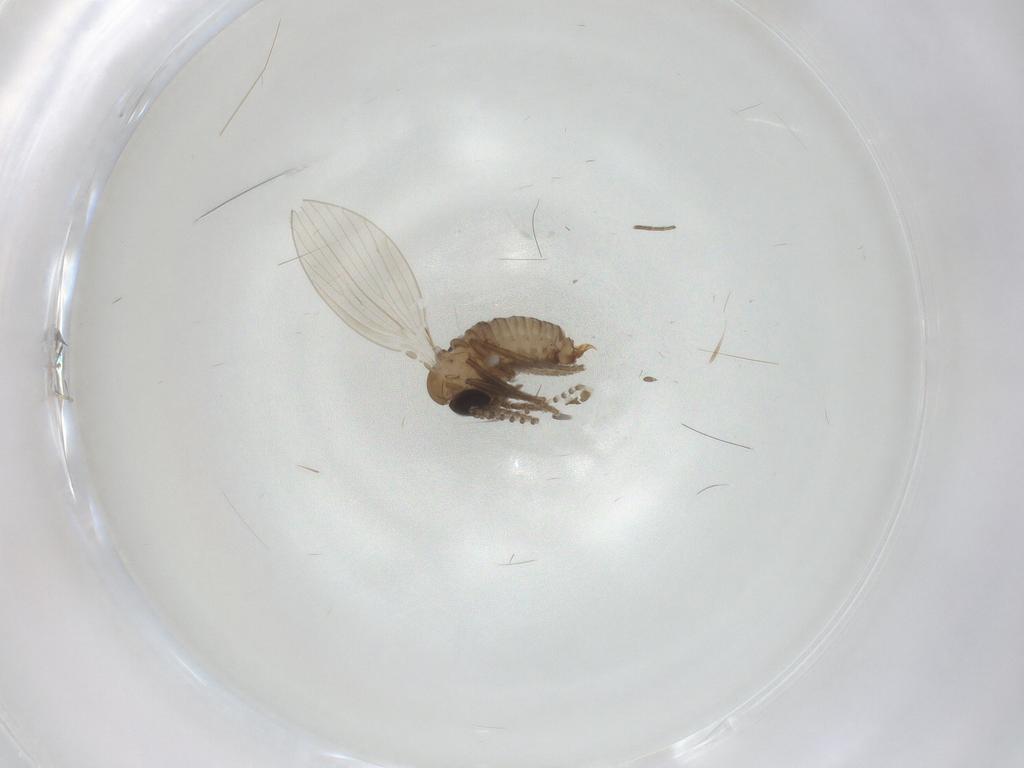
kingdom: Animalia
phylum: Arthropoda
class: Insecta
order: Diptera
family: Psychodidae
